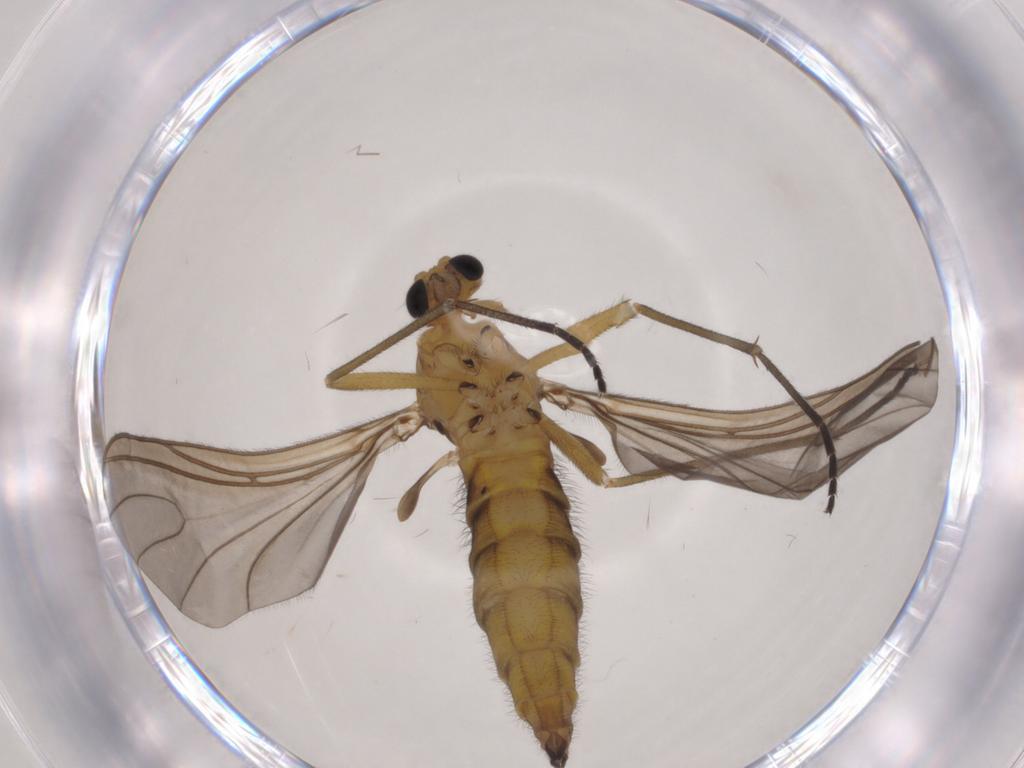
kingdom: Animalia
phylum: Arthropoda
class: Insecta
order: Diptera
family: Sciaridae
